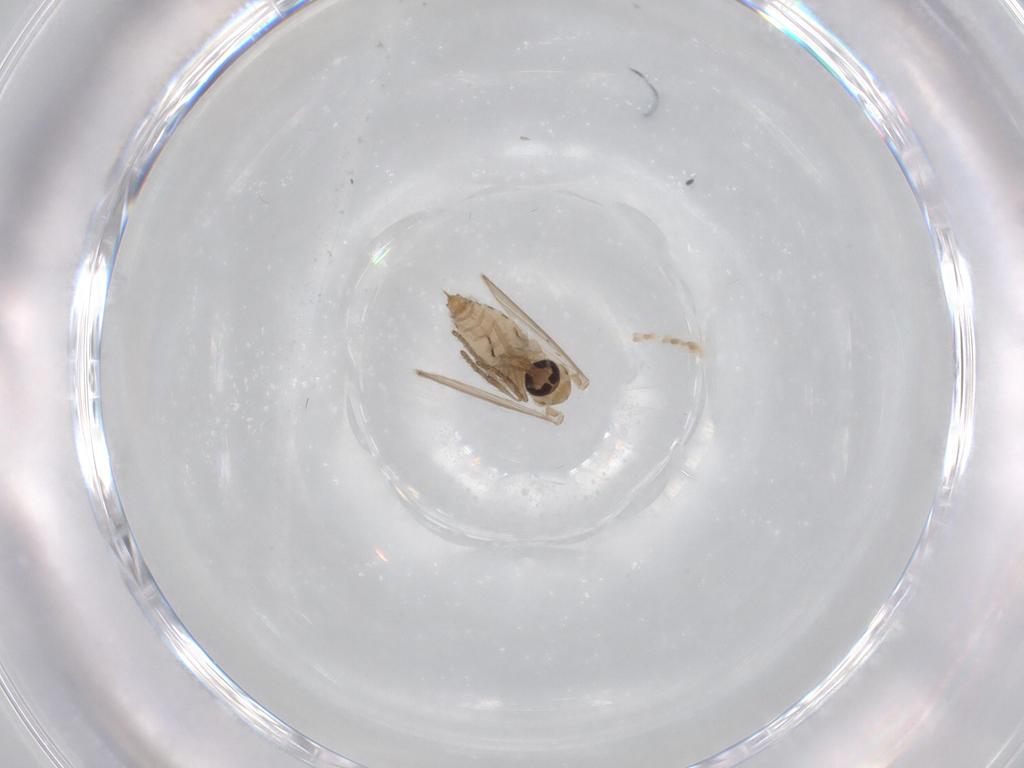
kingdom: Animalia
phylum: Arthropoda
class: Insecta
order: Diptera
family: Psychodidae
